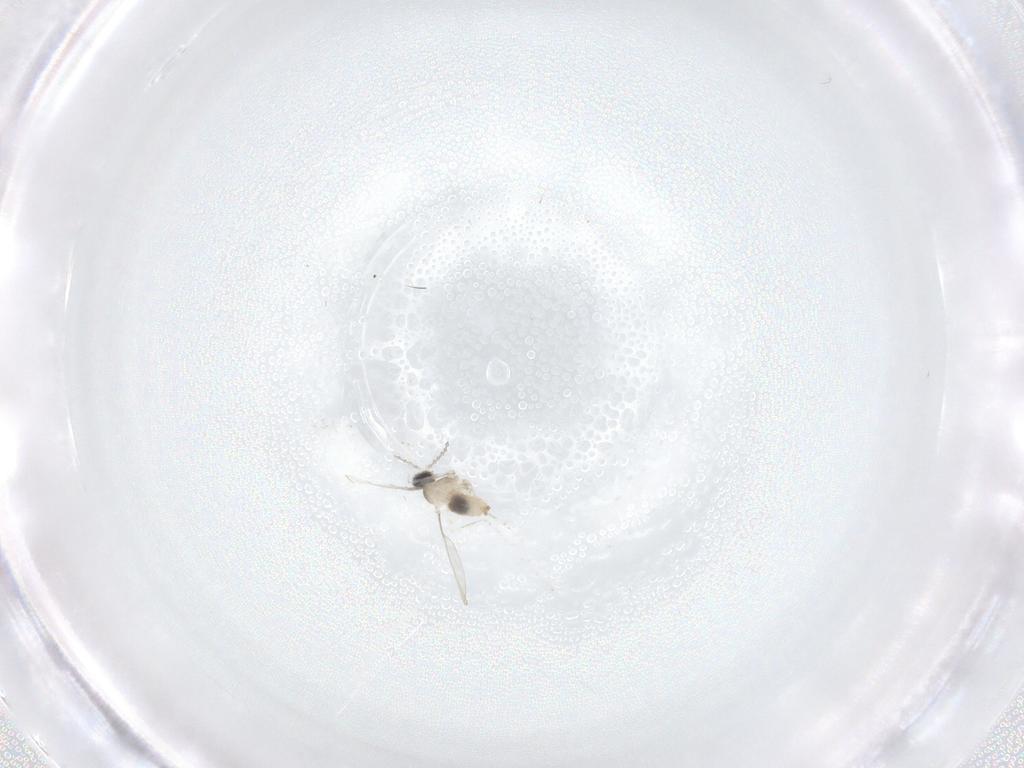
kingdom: Animalia
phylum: Arthropoda
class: Insecta
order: Diptera
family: Cecidomyiidae
